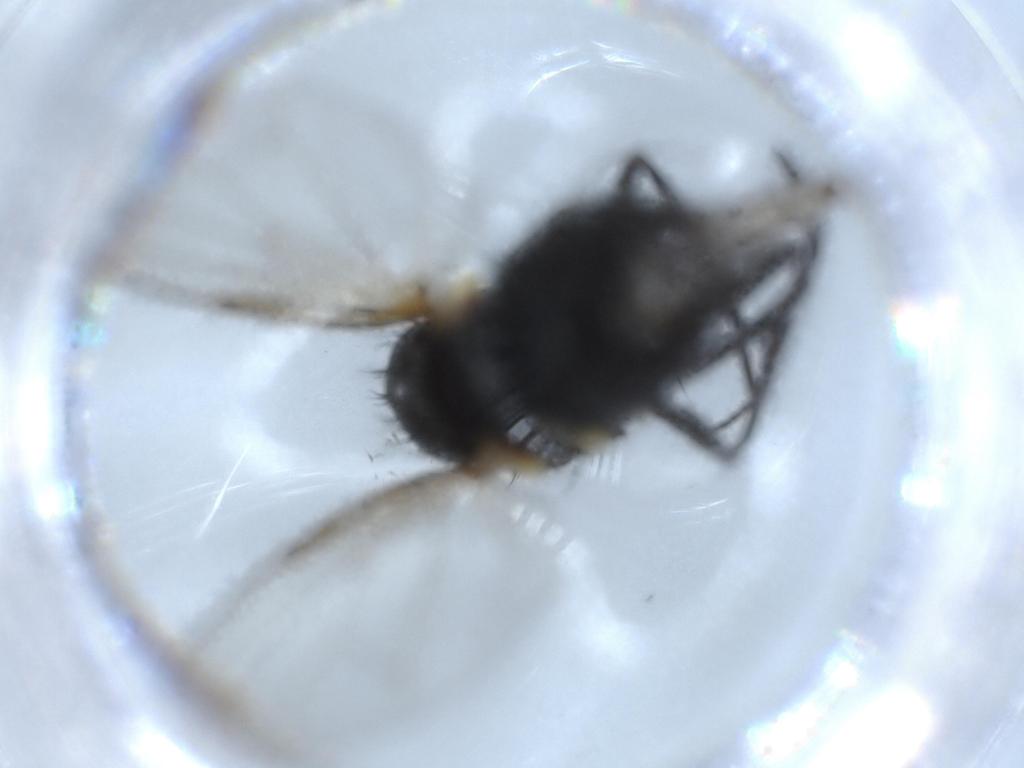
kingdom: Animalia
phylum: Arthropoda
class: Insecta
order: Diptera
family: Muscidae
